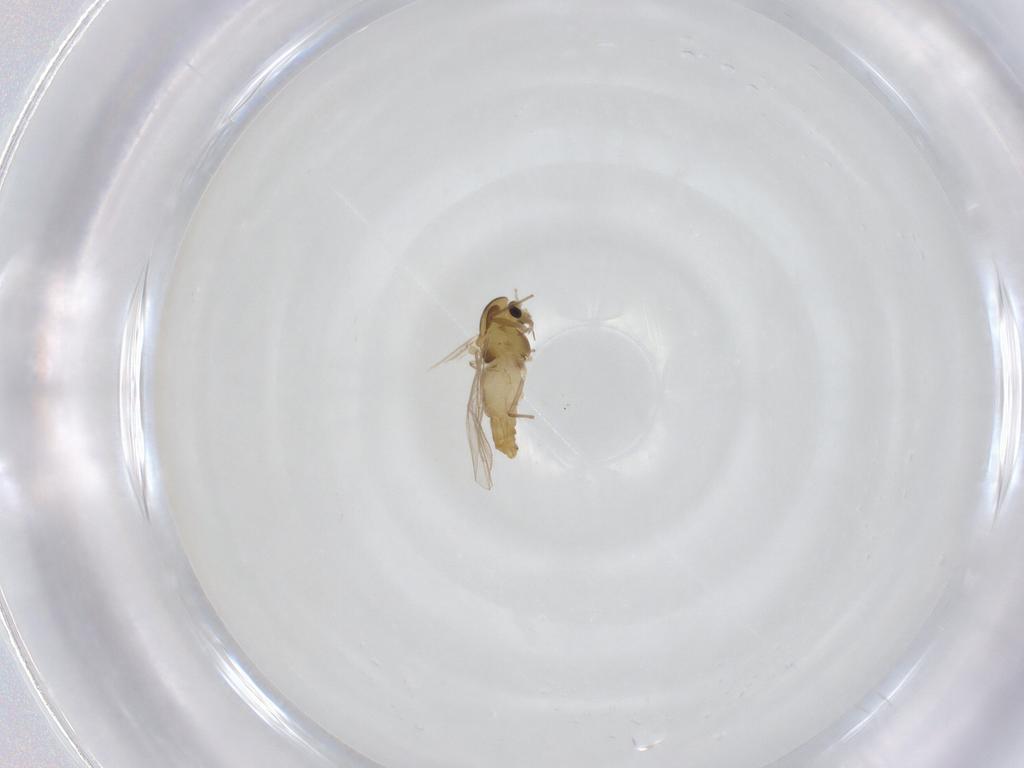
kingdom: Animalia
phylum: Arthropoda
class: Insecta
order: Diptera
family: Chironomidae
